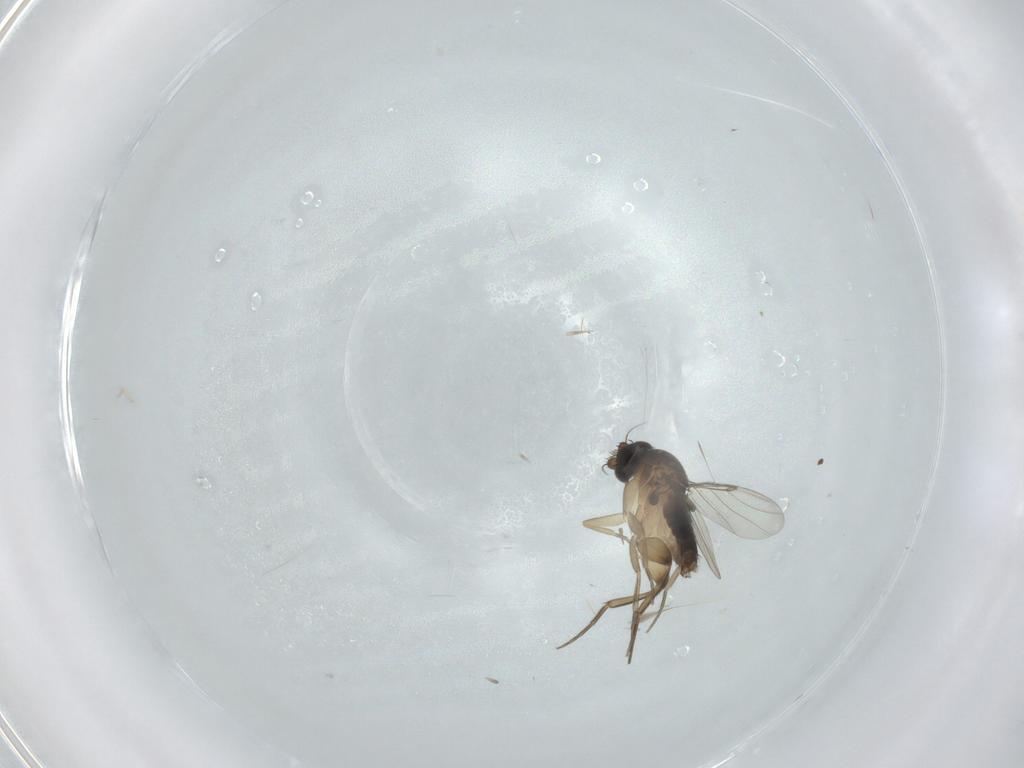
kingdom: Animalia
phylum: Arthropoda
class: Insecta
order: Diptera
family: Phoridae
